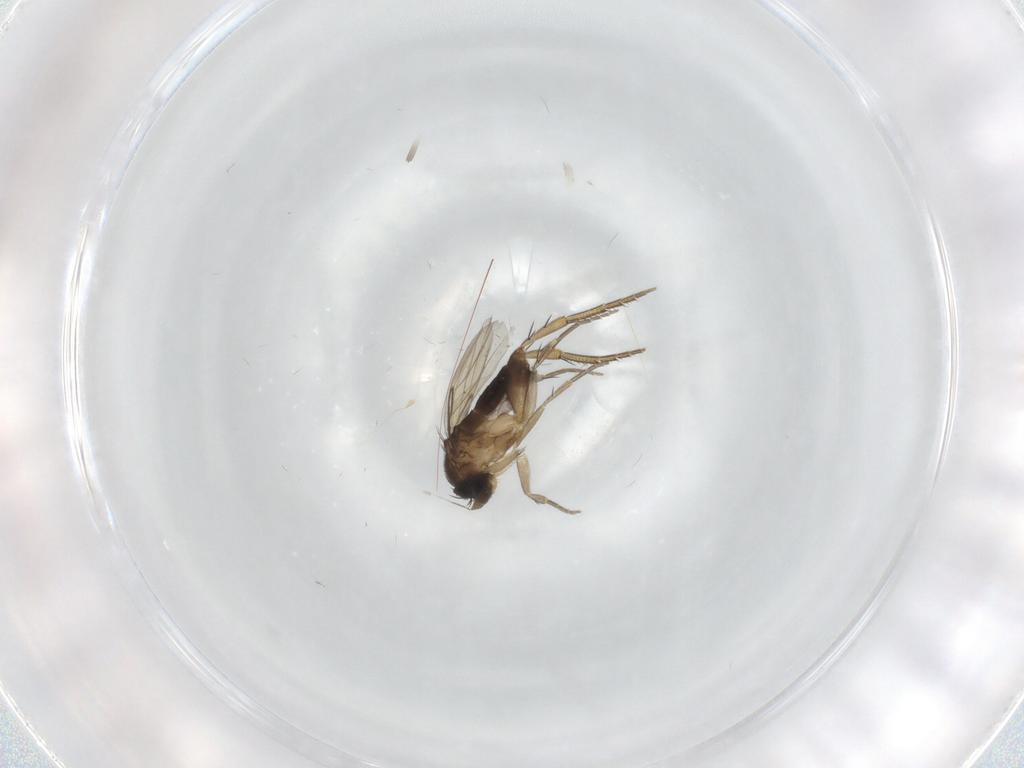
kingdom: Animalia
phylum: Arthropoda
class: Insecta
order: Diptera
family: Phoridae
